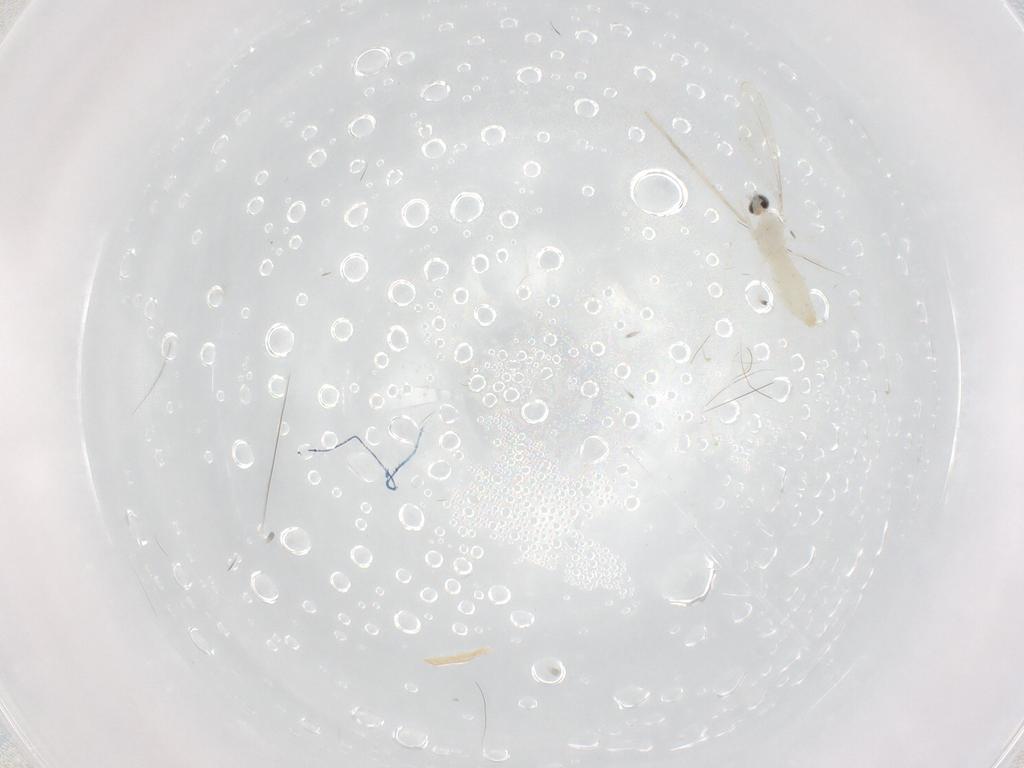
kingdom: Animalia
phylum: Arthropoda
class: Insecta
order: Diptera
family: Cecidomyiidae
